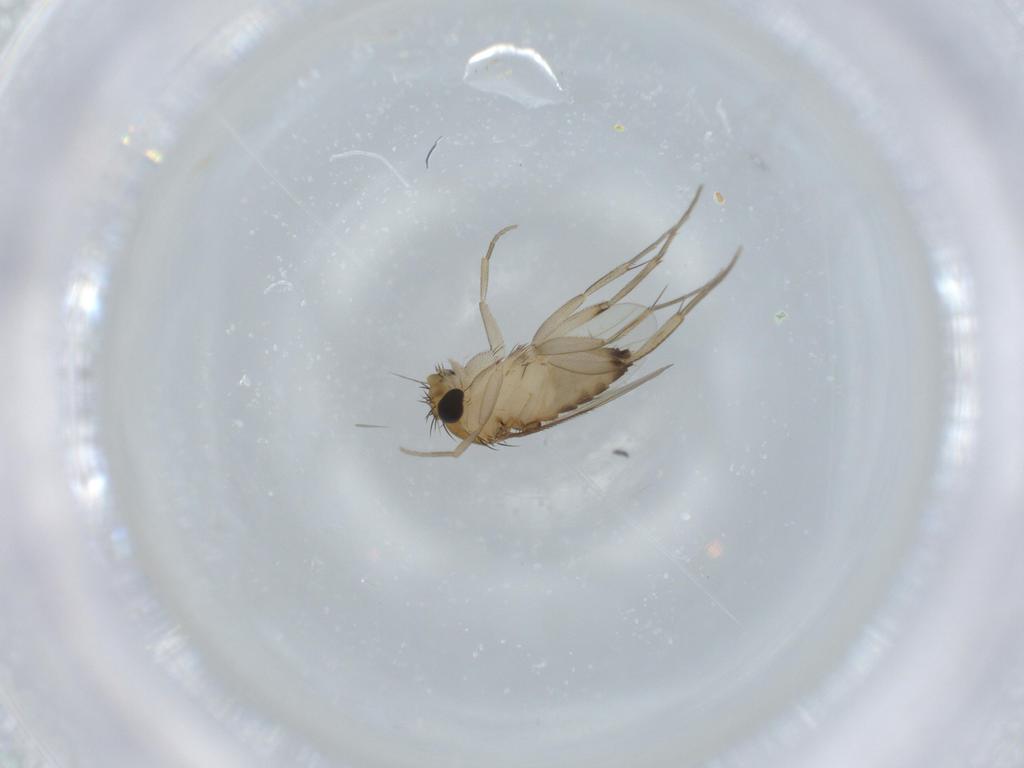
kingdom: Animalia
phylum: Arthropoda
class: Insecta
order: Diptera
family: Phoridae
